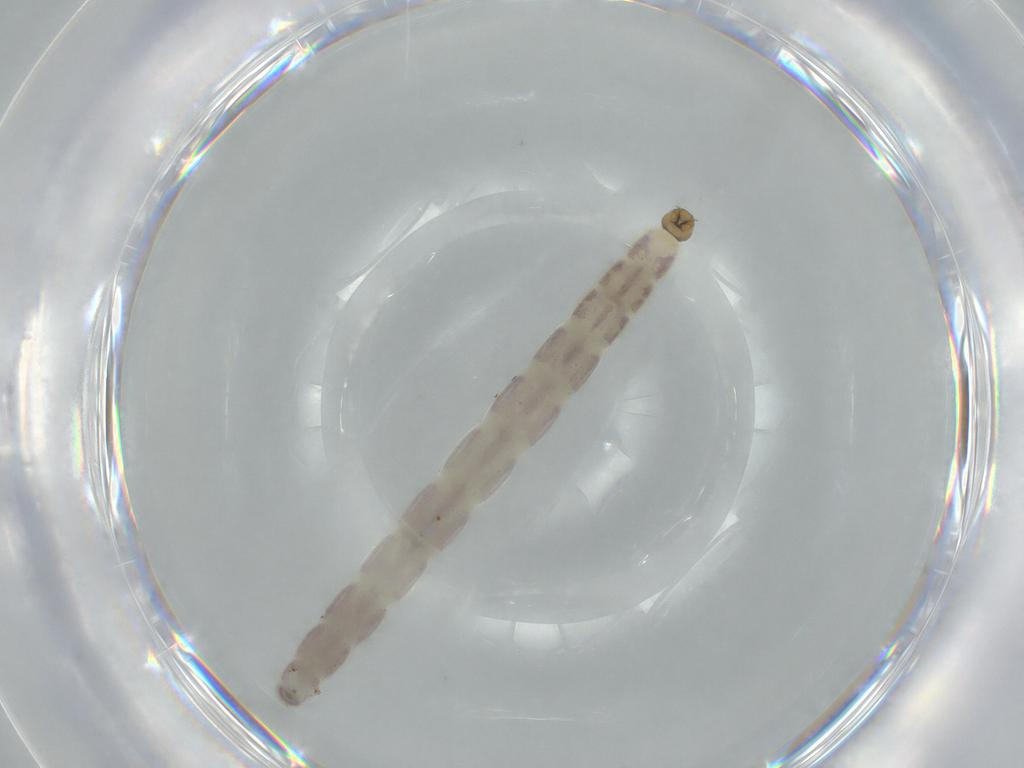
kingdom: Animalia
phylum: Arthropoda
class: Insecta
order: Diptera
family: Chironomidae
